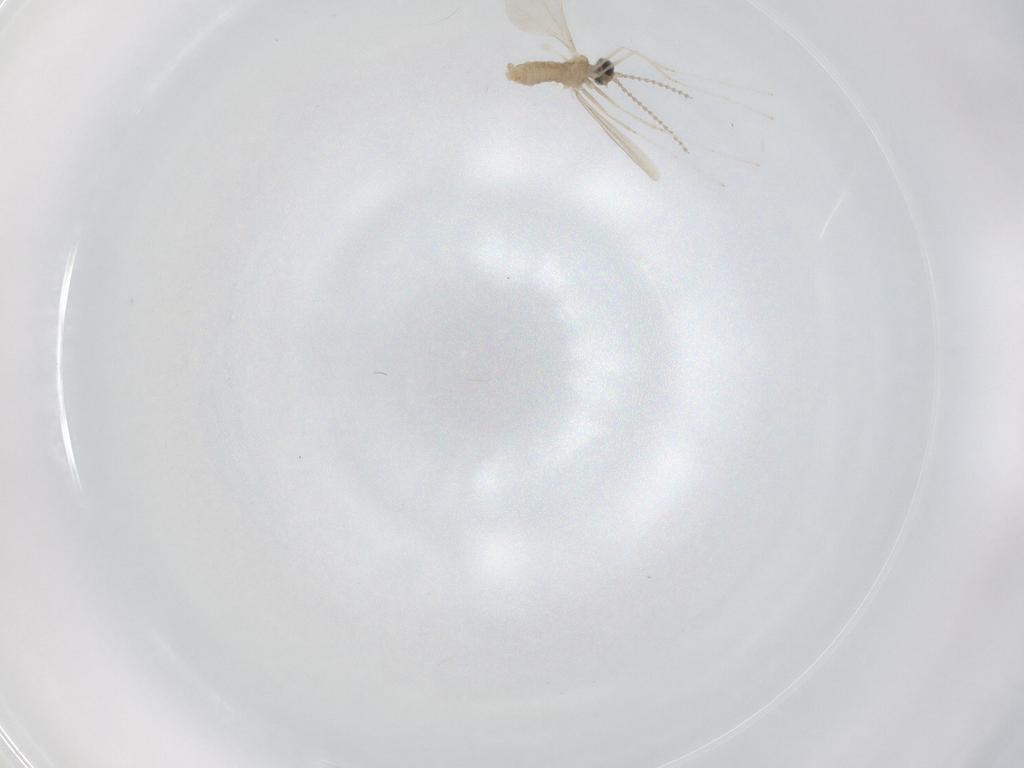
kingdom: Animalia
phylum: Arthropoda
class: Insecta
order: Diptera
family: Cecidomyiidae
